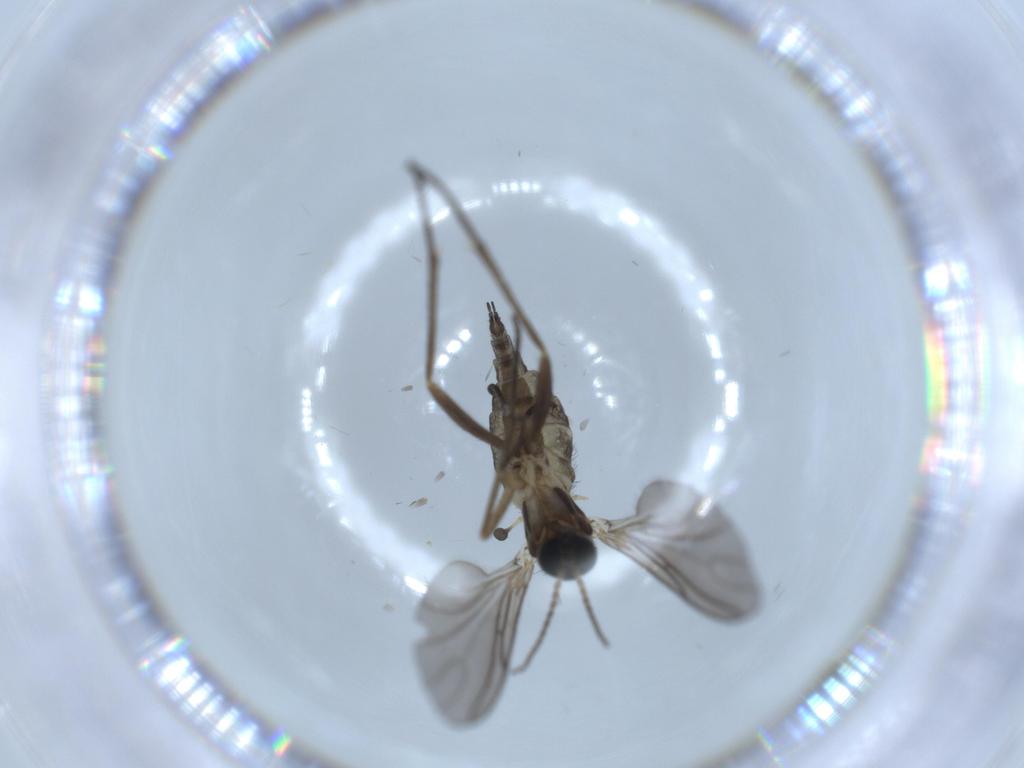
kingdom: Animalia
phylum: Arthropoda
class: Insecta
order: Diptera
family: Sciaridae
